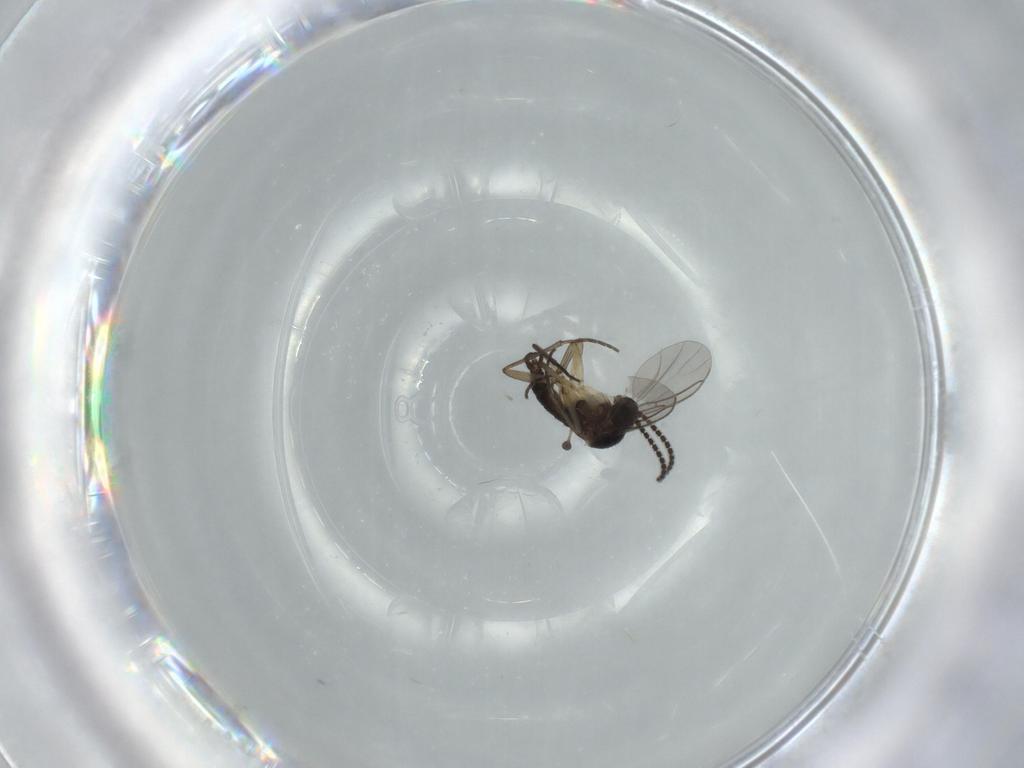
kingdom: Animalia
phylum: Arthropoda
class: Insecta
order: Diptera
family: Sciaridae
